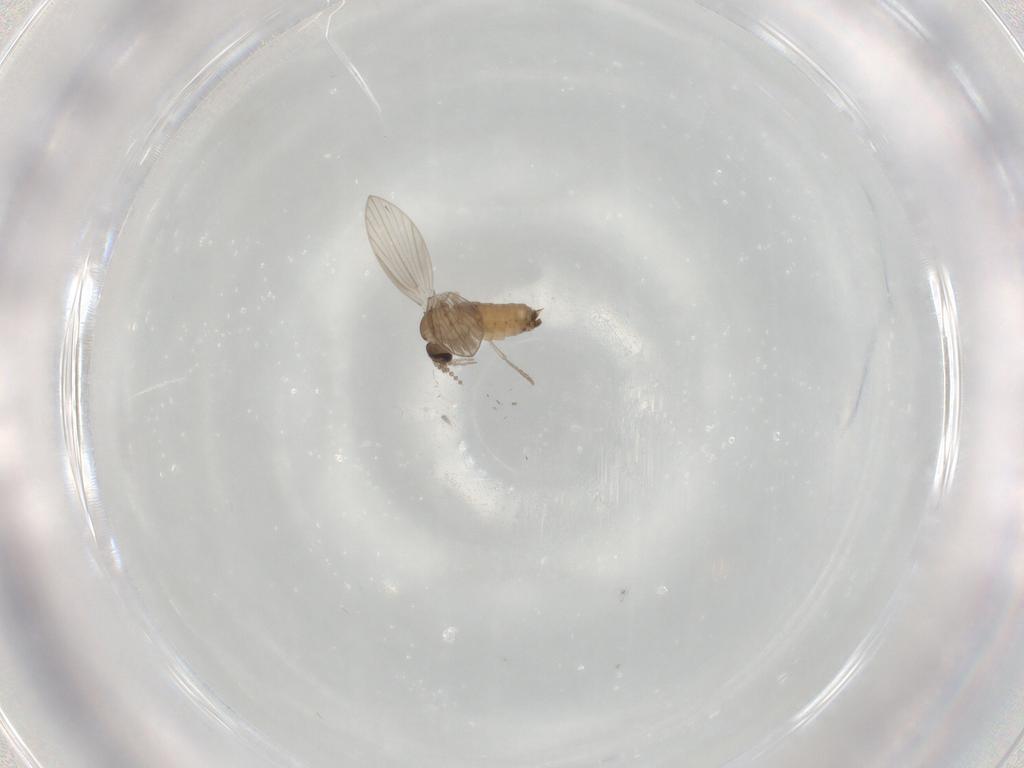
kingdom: Animalia
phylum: Arthropoda
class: Insecta
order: Diptera
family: Psychodidae
